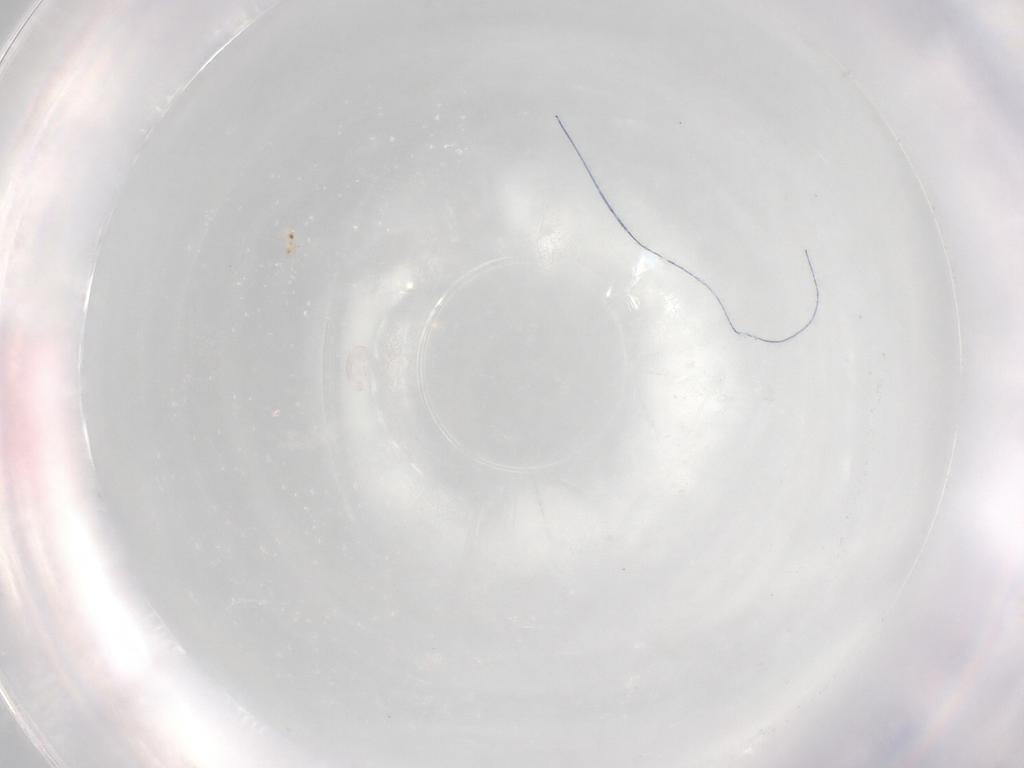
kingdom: Animalia
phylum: Arthropoda
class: Arachnida
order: Sarcoptiformes
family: Oribatulidae
